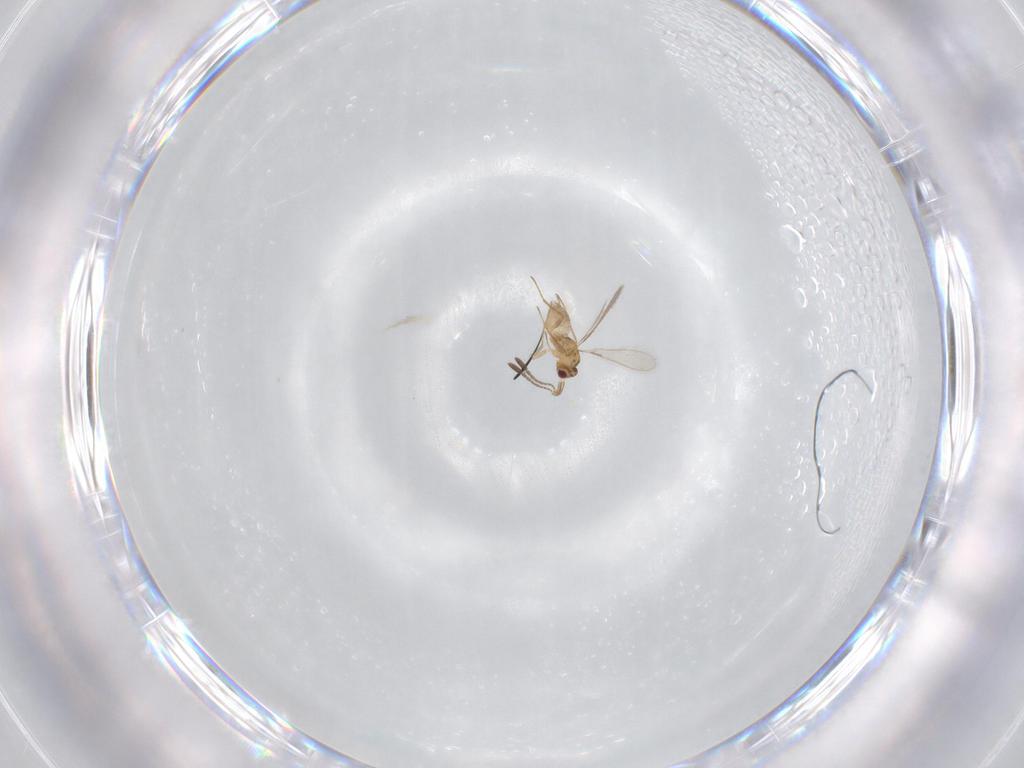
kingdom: Animalia
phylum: Arthropoda
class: Insecta
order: Hymenoptera
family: Mymaridae
